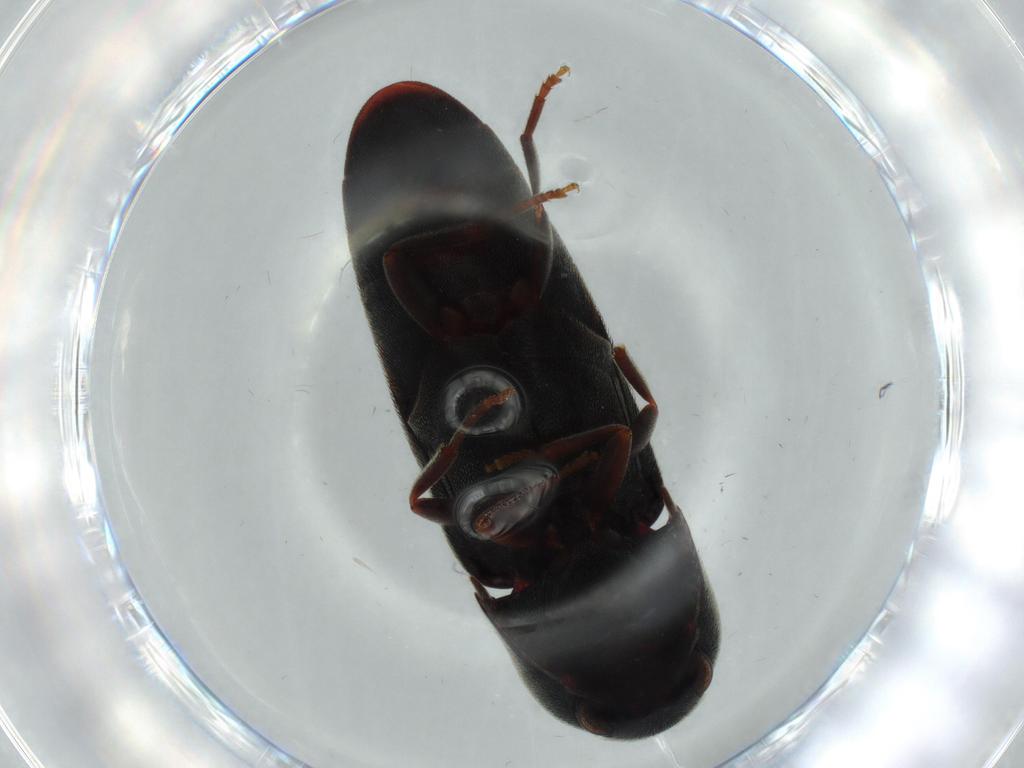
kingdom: Animalia
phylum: Arthropoda
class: Insecta
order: Coleoptera
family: Eucnemidae
